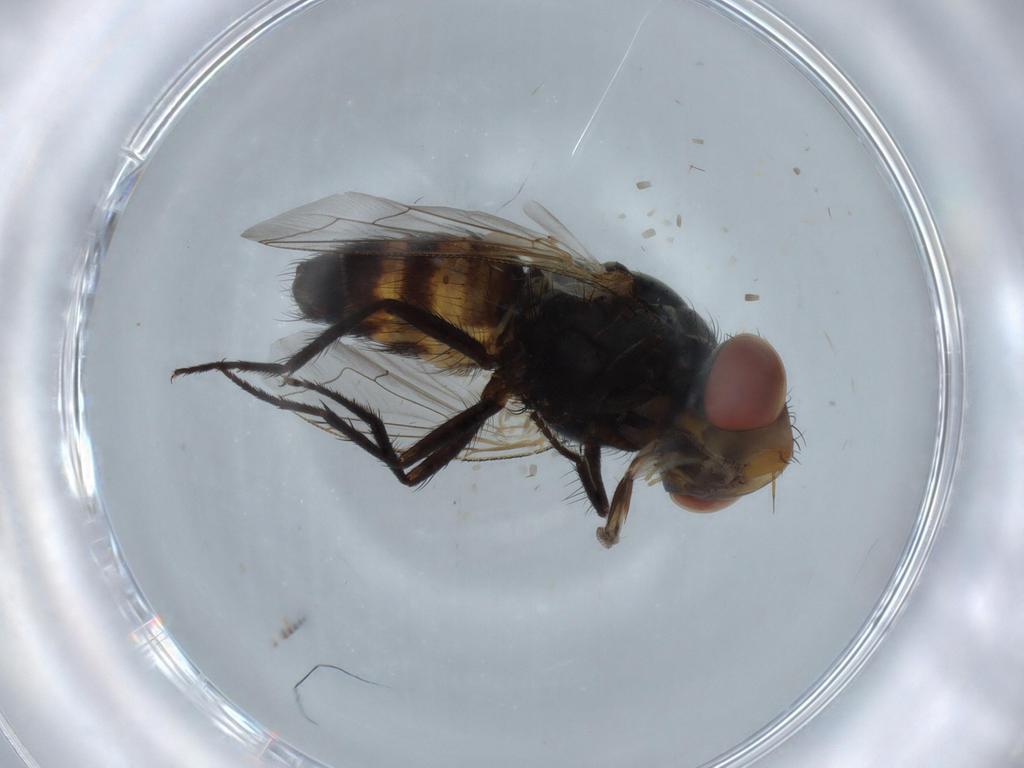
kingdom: Animalia
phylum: Arthropoda
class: Insecta
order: Diptera
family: Sarcophagidae
